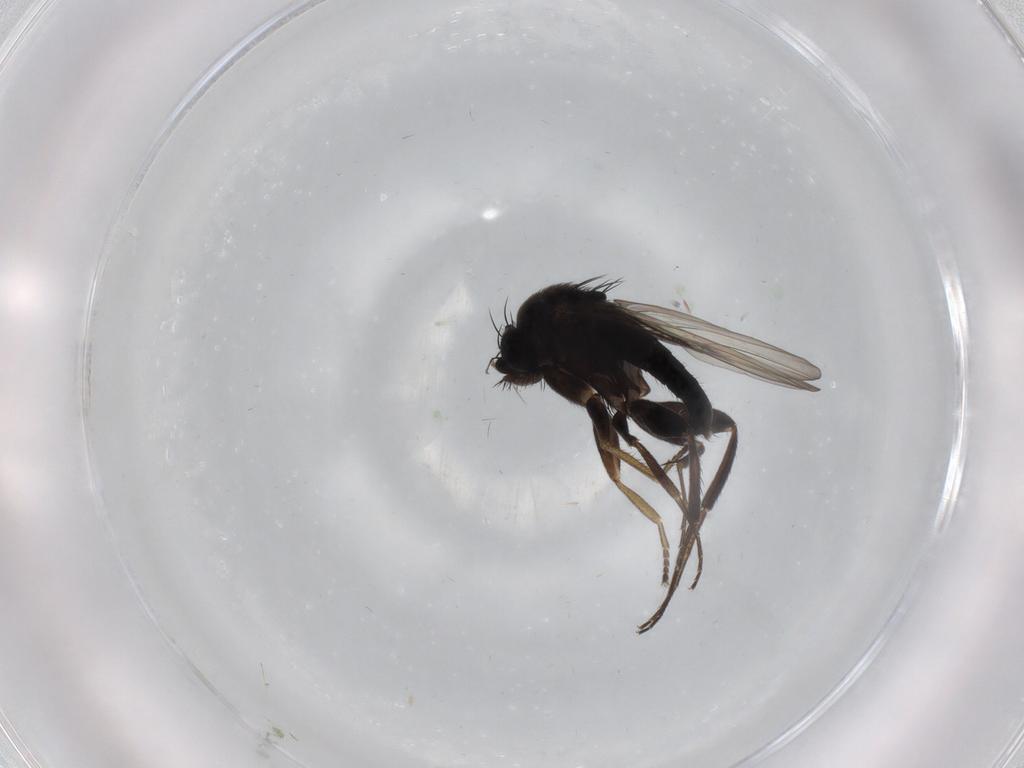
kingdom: Animalia
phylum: Arthropoda
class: Insecta
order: Diptera
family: Phoridae
